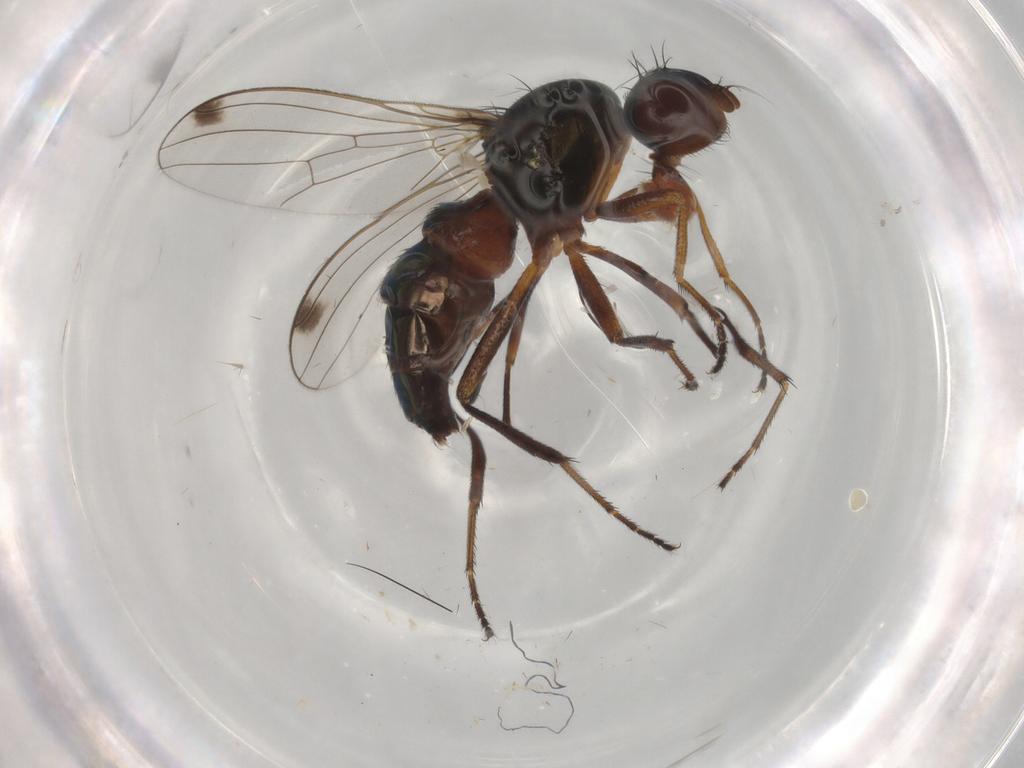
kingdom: Animalia
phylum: Arthropoda
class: Insecta
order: Diptera
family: Sepsidae
